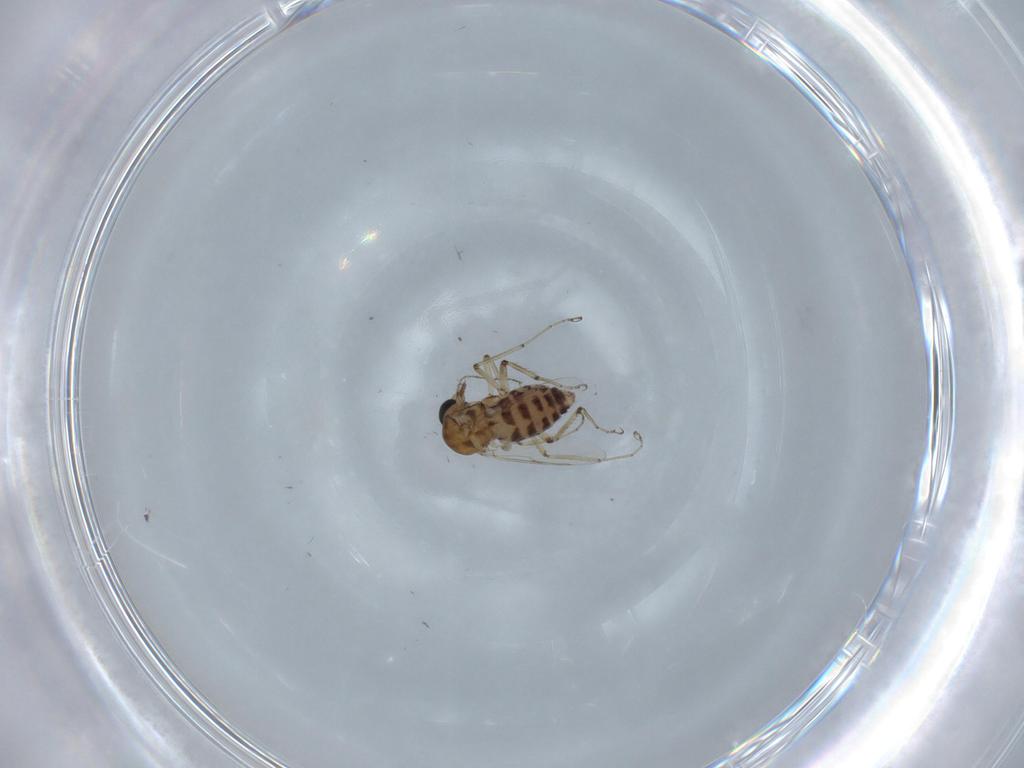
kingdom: Animalia
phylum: Arthropoda
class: Insecta
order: Diptera
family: Ceratopogonidae
